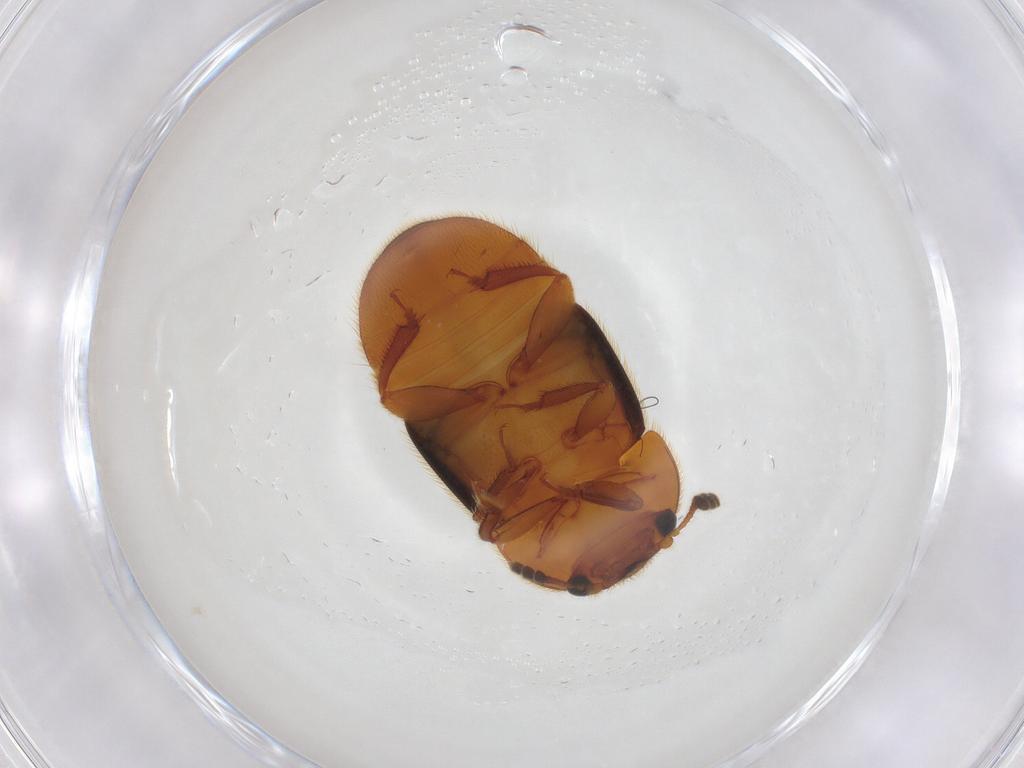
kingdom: Animalia
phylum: Arthropoda
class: Insecta
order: Coleoptera
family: Nitidulidae
